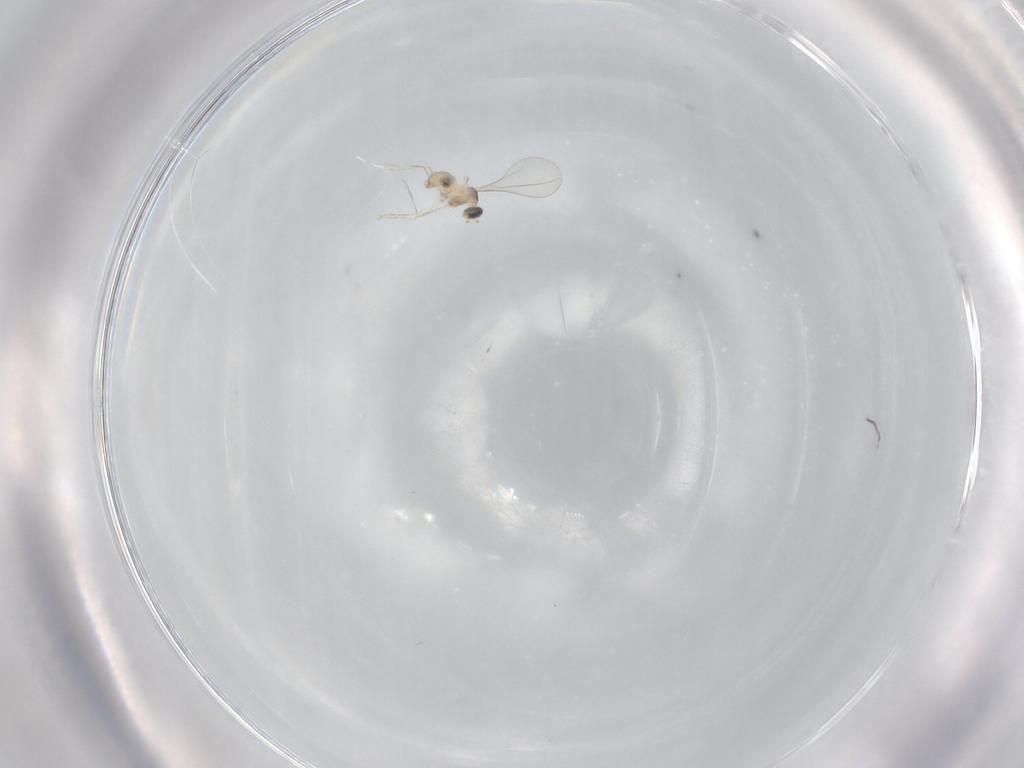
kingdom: Animalia
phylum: Arthropoda
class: Insecta
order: Diptera
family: Cecidomyiidae
